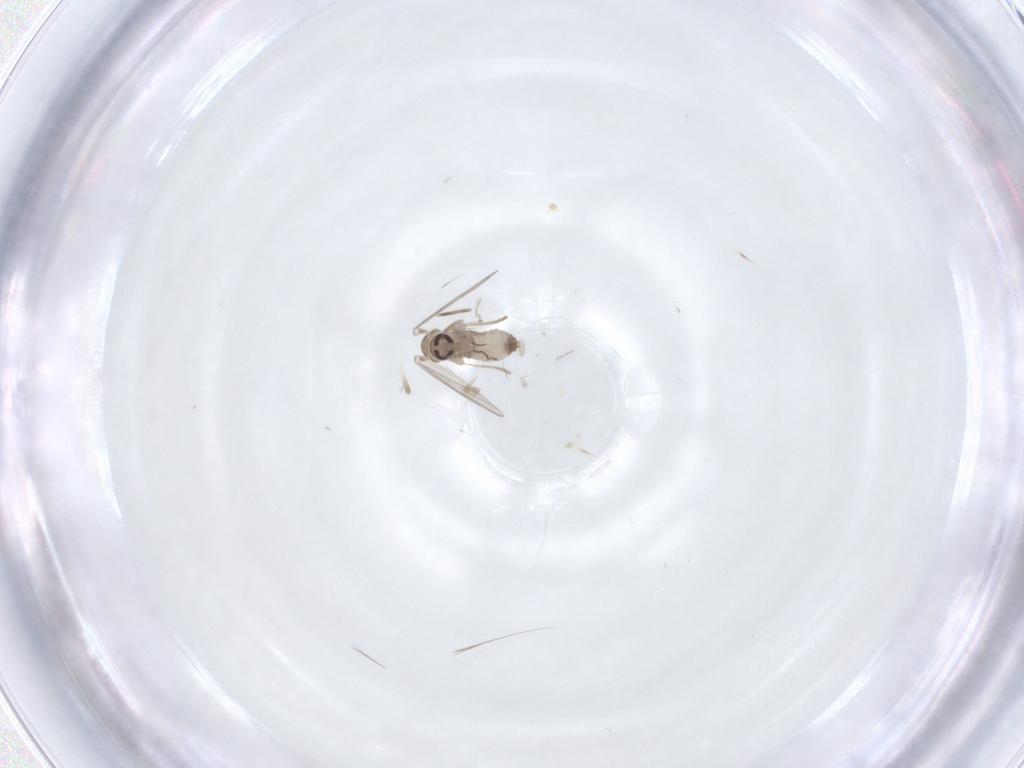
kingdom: Animalia
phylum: Arthropoda
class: Insecta
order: Diptera
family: Psychodidae
